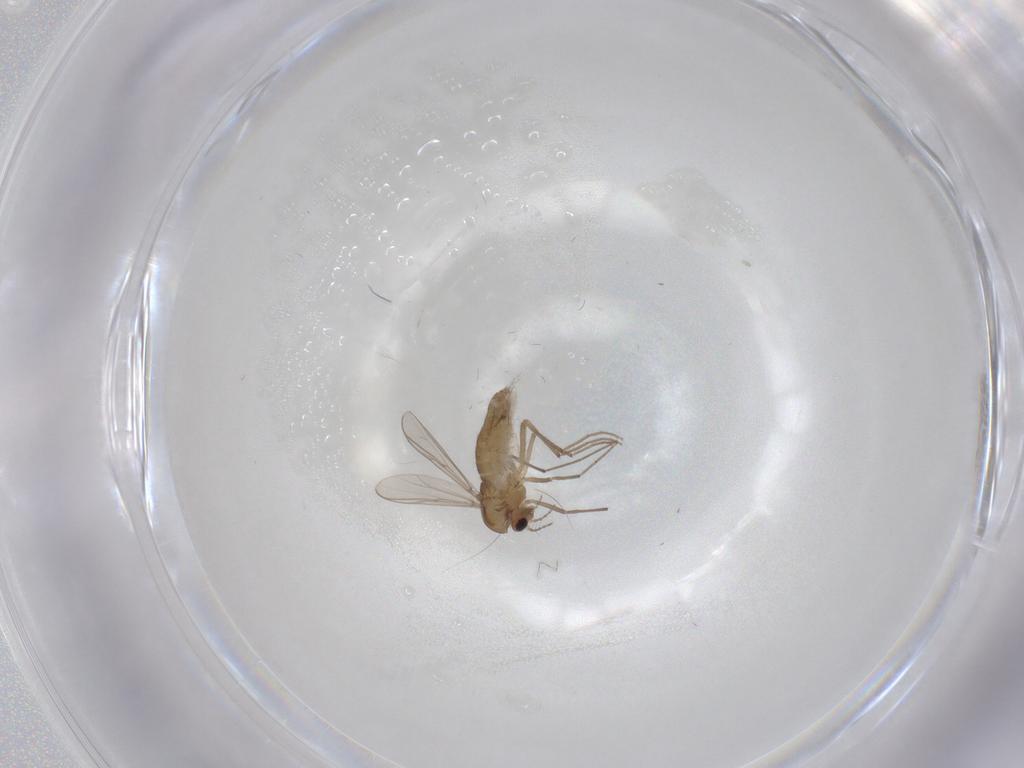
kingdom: Animalia
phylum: Arthropoda
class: Insecta
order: Diptera
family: Chironomidae
